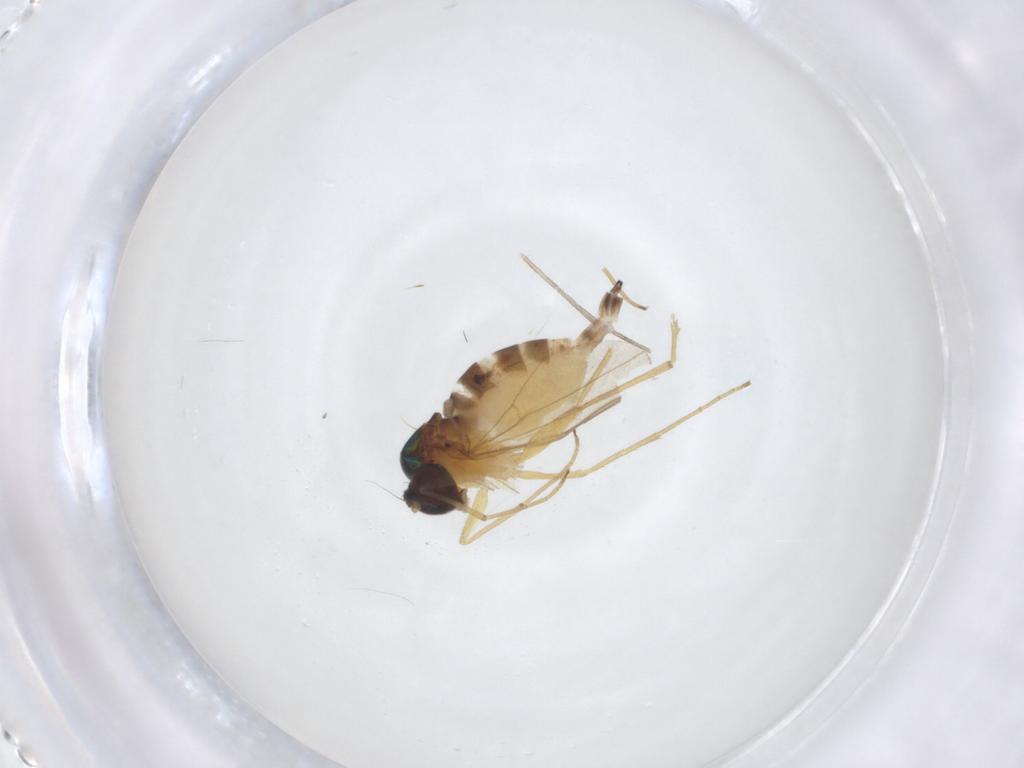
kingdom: Animalia
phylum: Arthropoda
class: Insecta
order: Diptera
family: Dolichopodidae
